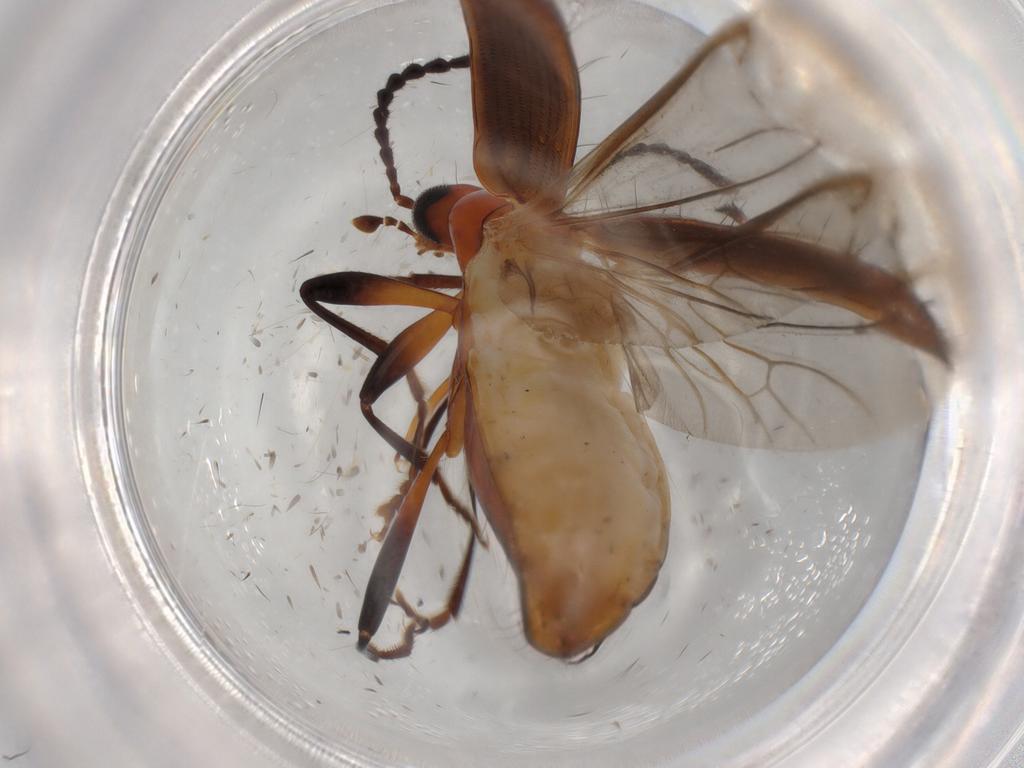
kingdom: Animalia
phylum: Arthropoda
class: Insecta
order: Coleoptera
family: Tenebrionidae
